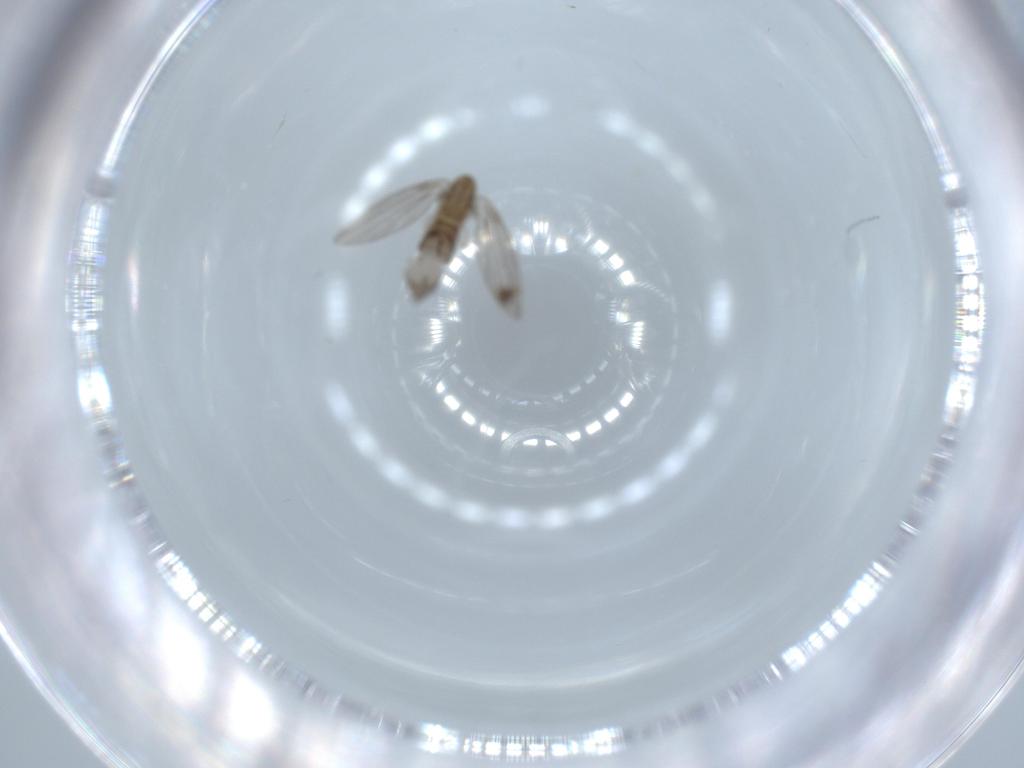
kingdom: Animalia
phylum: Arthropoda
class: Insecta
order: Diptera
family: Psychodidae
